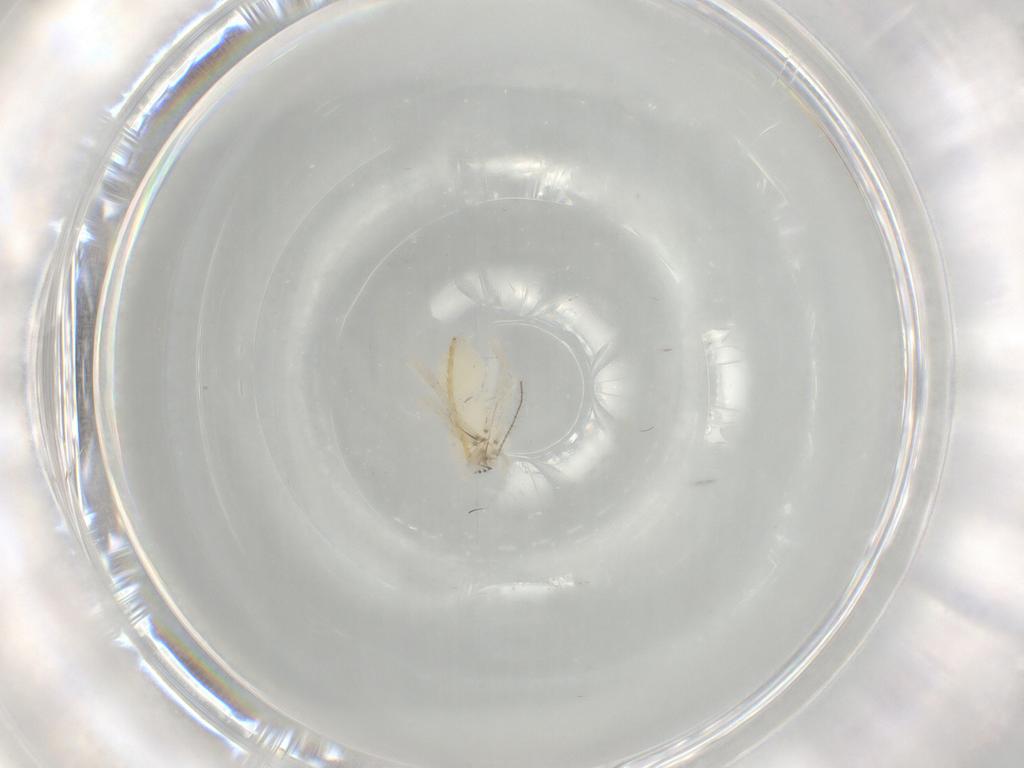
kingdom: Animalia
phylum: Arthropoda
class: Arachnida
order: Araneae
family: Anyphaenidae
